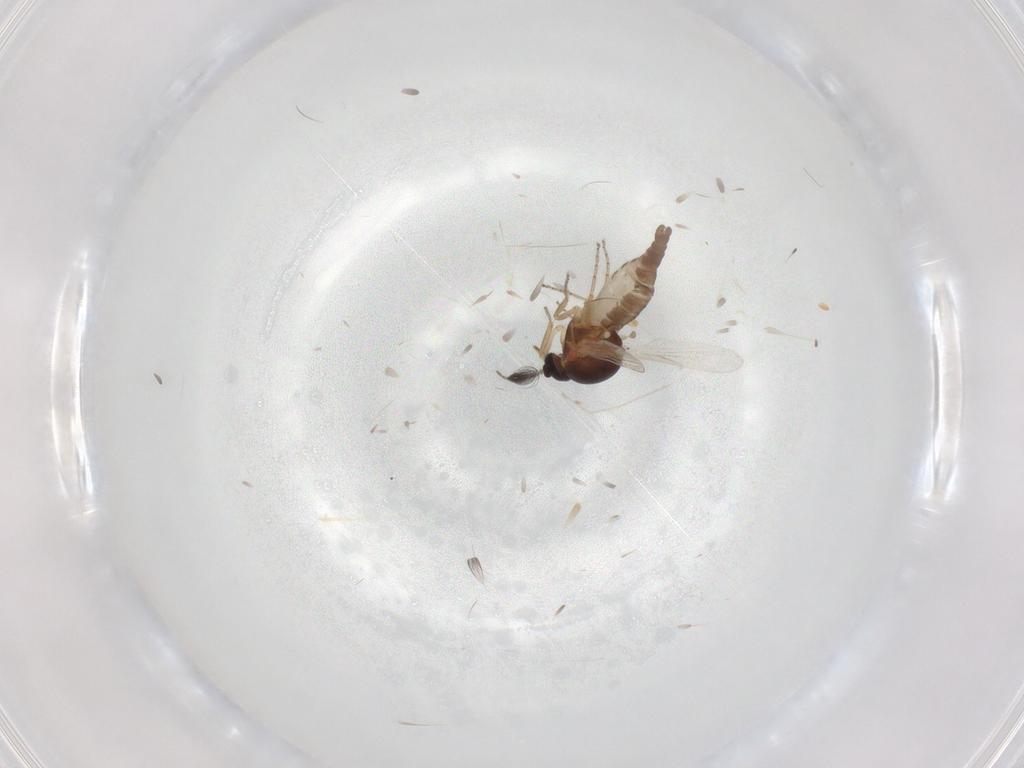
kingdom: Animalia
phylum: Arthropoda
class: Insecta
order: Diptera
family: Ceratopogonidae
